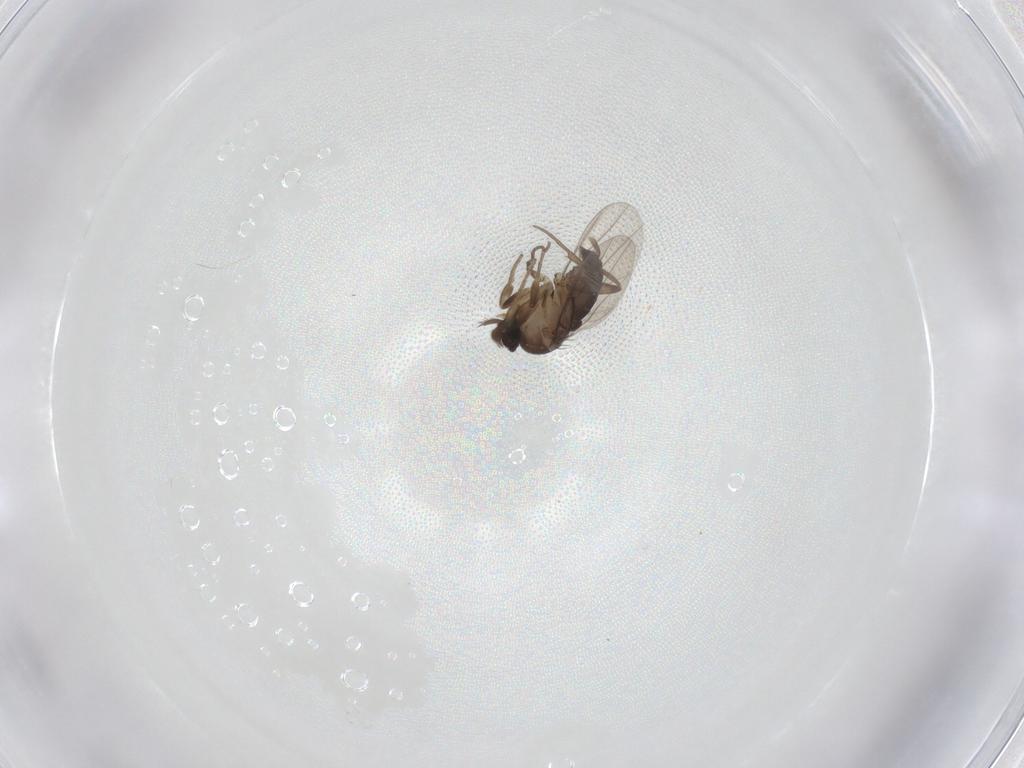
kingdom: Animalia
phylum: Arthropoda
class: Insecta
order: Diptera
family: Phoridae
